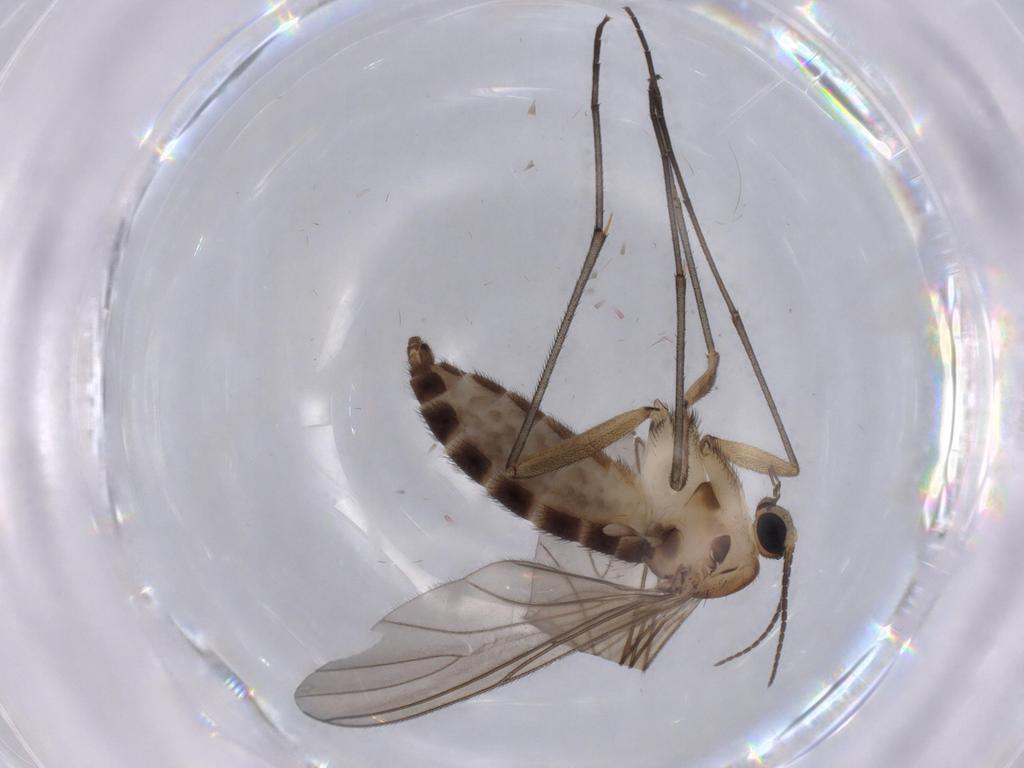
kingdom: Animalia
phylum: Arthropoda
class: Insecta
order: Diptera
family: Sciaridae
